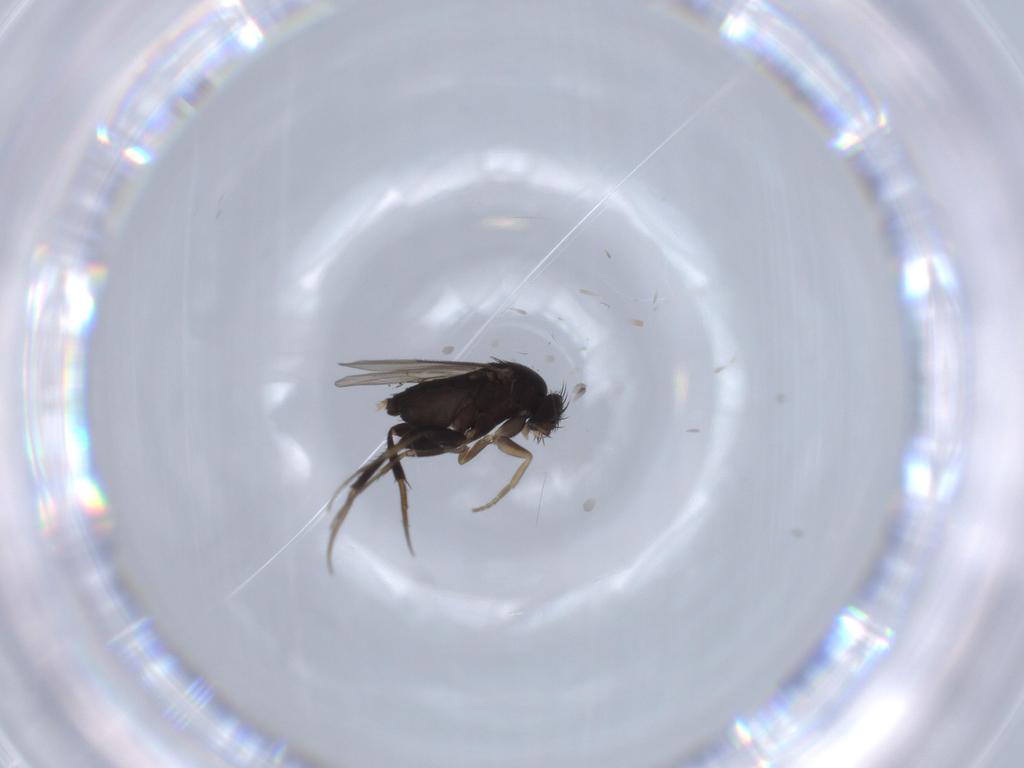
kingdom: Animalia
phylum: Arthropoda
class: Insecta
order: Diptera
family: Phoridae
